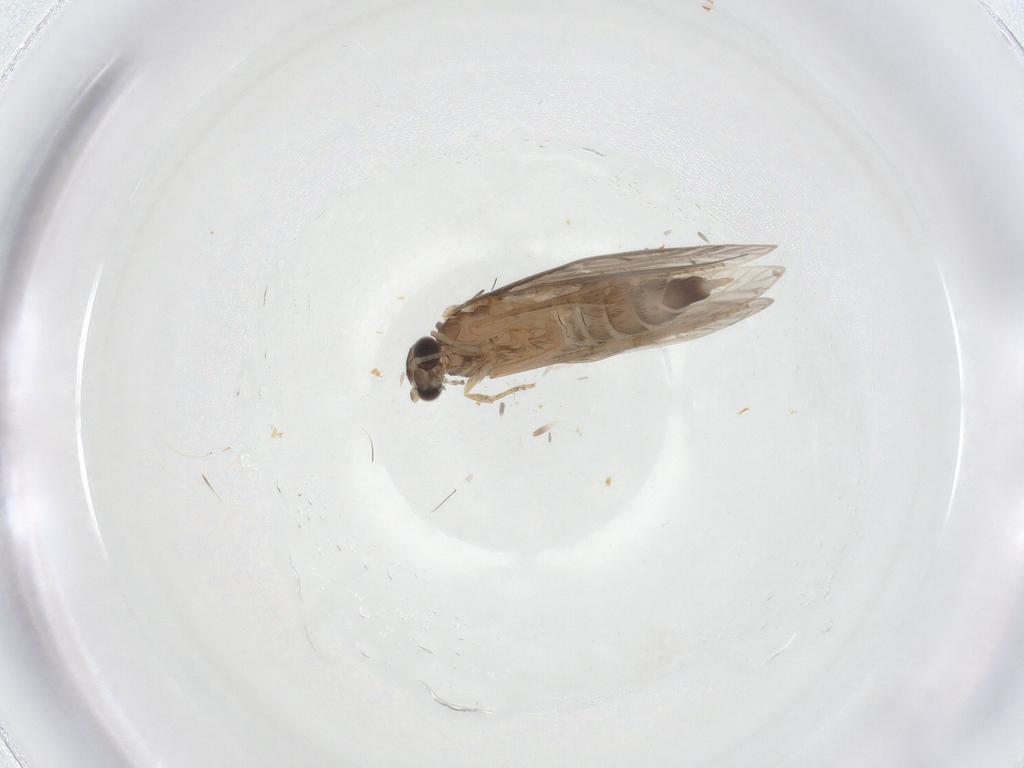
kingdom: Animalia
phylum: Arthropoda
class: Insecta
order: Trichoptera
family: Hydroptilidae
